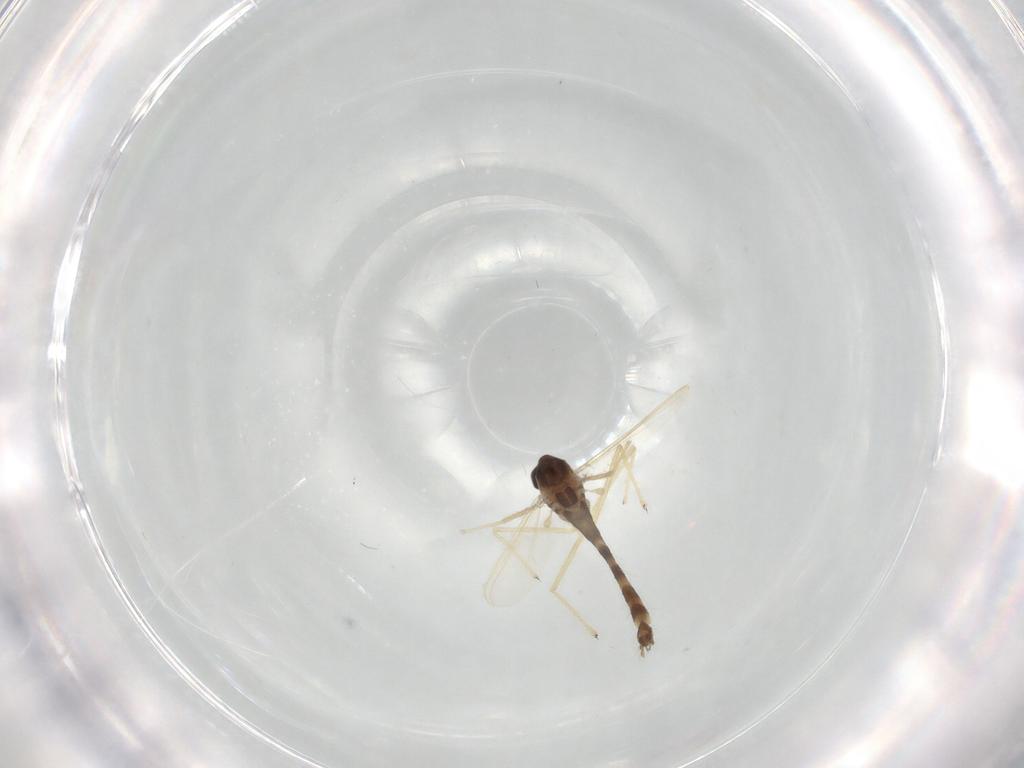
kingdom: Animalia
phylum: Arthropoda
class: Insecta
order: Diptera
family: Chironomidae
